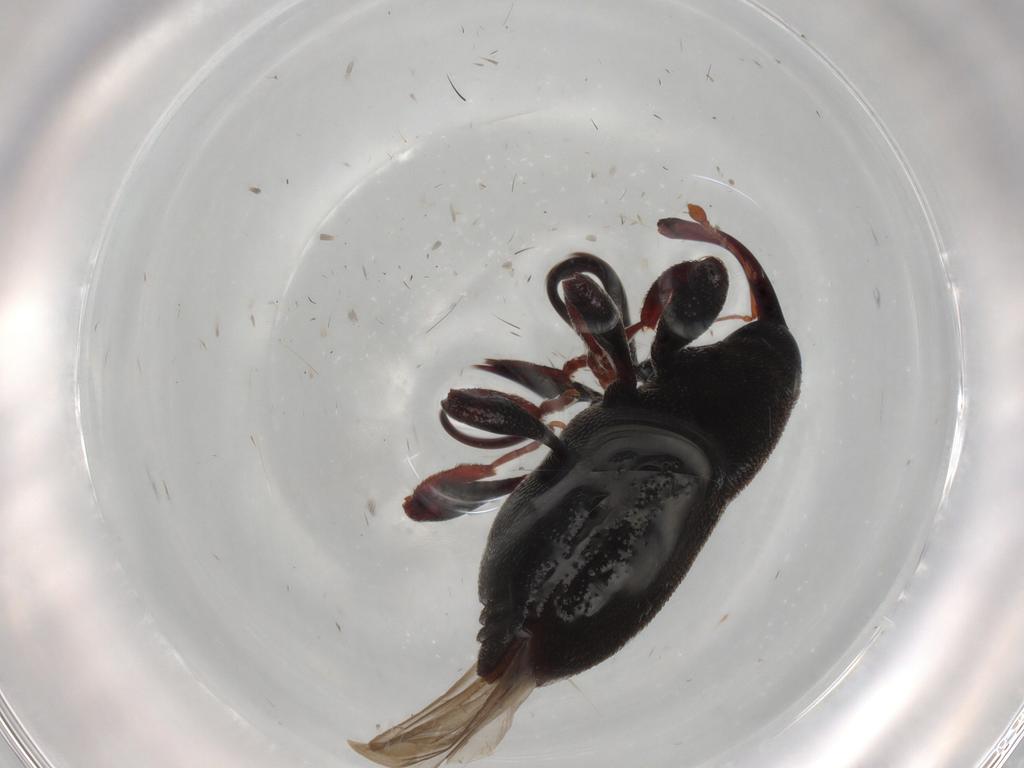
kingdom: Animalia
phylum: Arthropoda
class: Insecta
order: Coleoptera
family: Curculionidae
